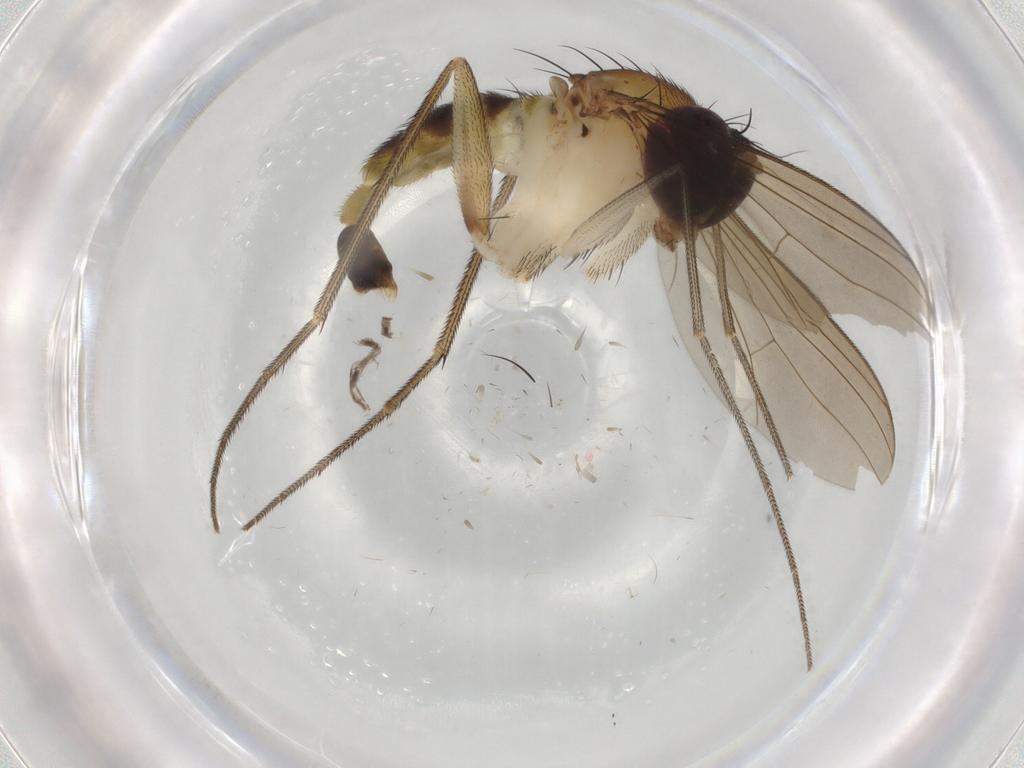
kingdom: Animalia
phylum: Arthropoda
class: Insecta
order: Diptera
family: Dolichopodidae
